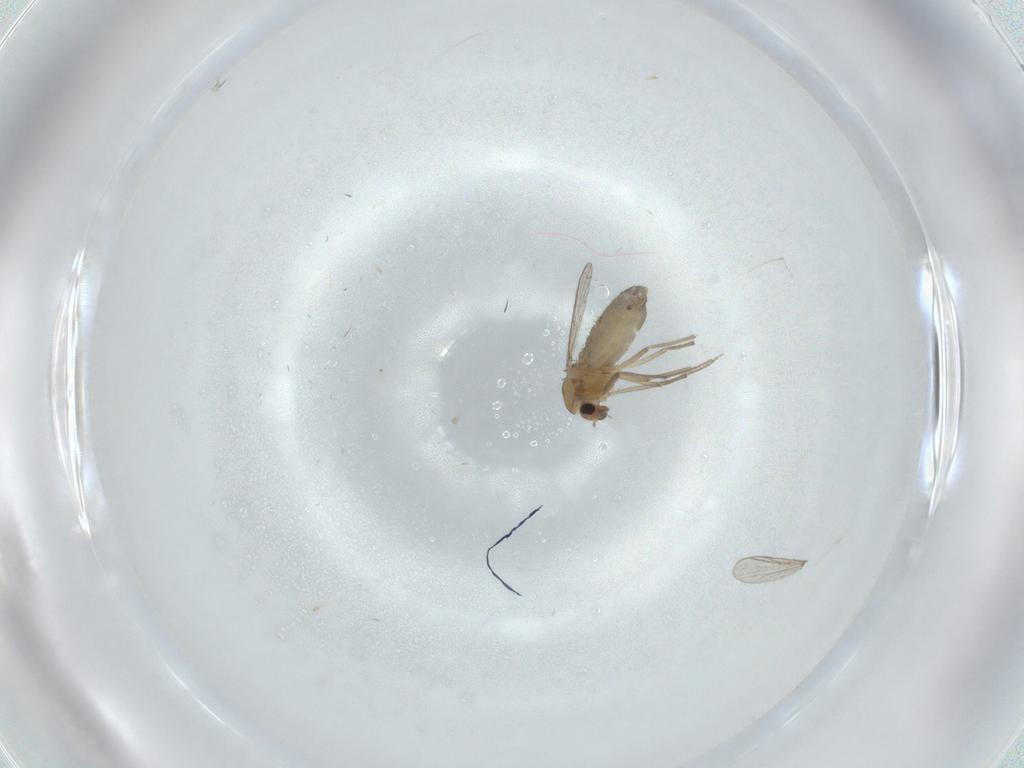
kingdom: Animalia
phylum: Arthropoda
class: Insecta
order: Diptera
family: Chironomidae
